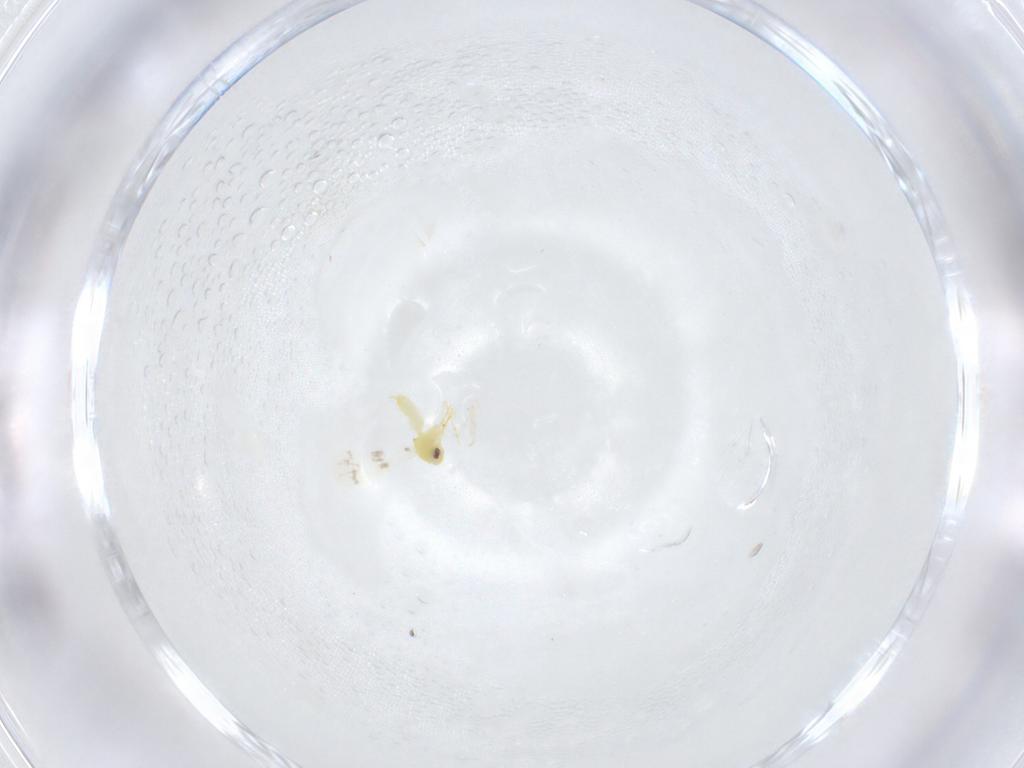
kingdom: Animalia
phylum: Arthropoda
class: Insecta
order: Hemiptera
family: Aleyrodidae
